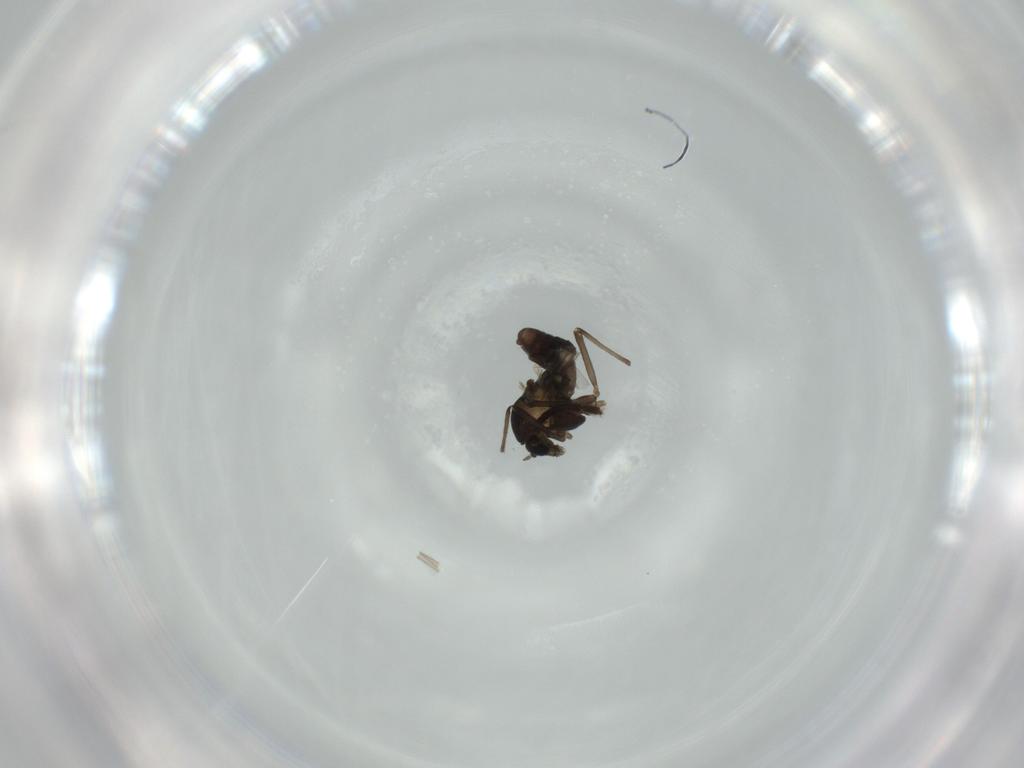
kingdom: Animalia
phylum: Arthropoda
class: Insecta
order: Diptera
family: Limoniidae
